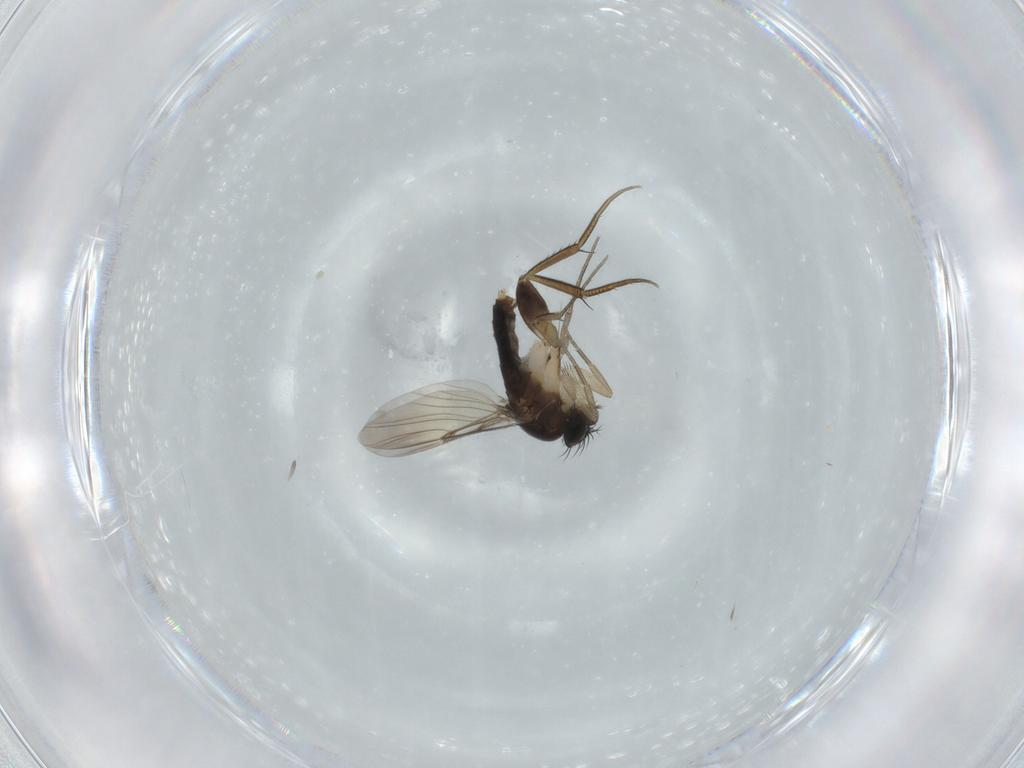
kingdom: Animalia
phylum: Arthropoda
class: Insecta
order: Diptera
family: Phoridae
